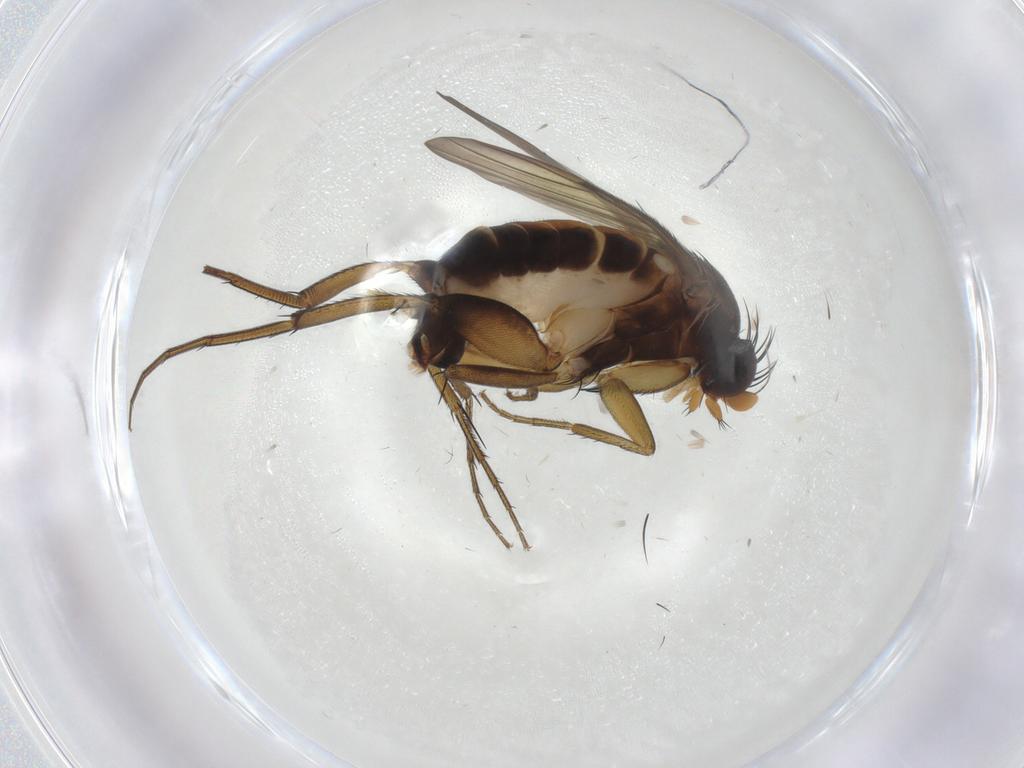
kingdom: Animalia
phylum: Arthropoda
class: Insecta
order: Diptera
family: Phoridae
